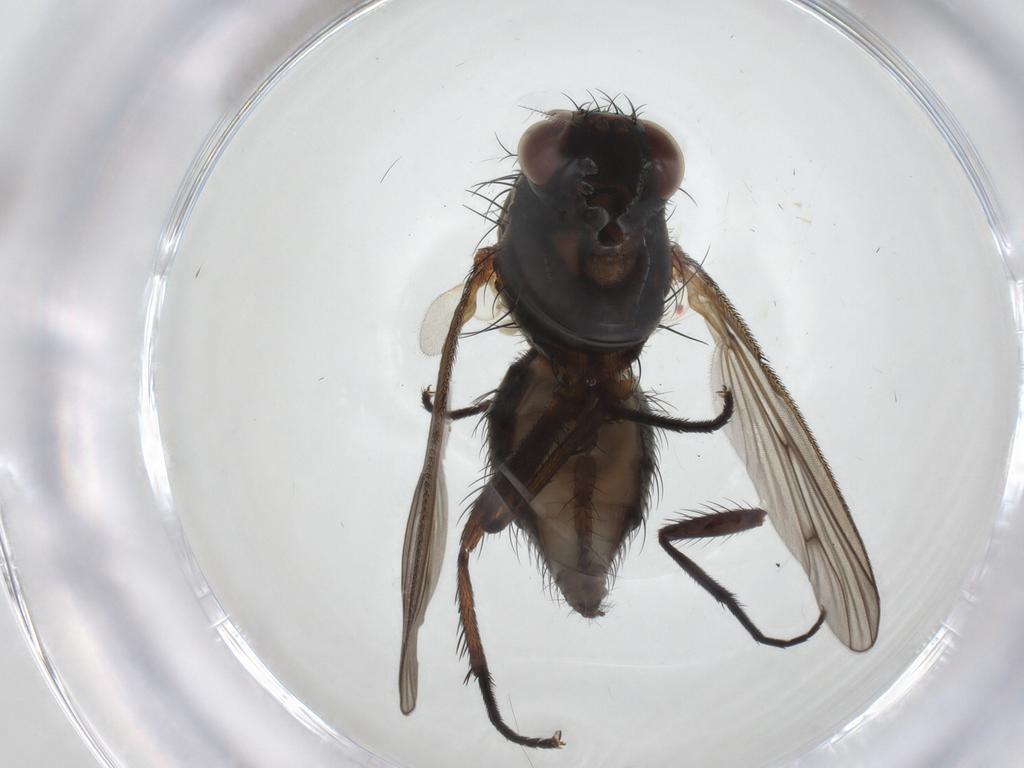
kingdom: Animalia
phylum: Arthropoda
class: Insecta
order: Diptera
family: Anthomyiidae
